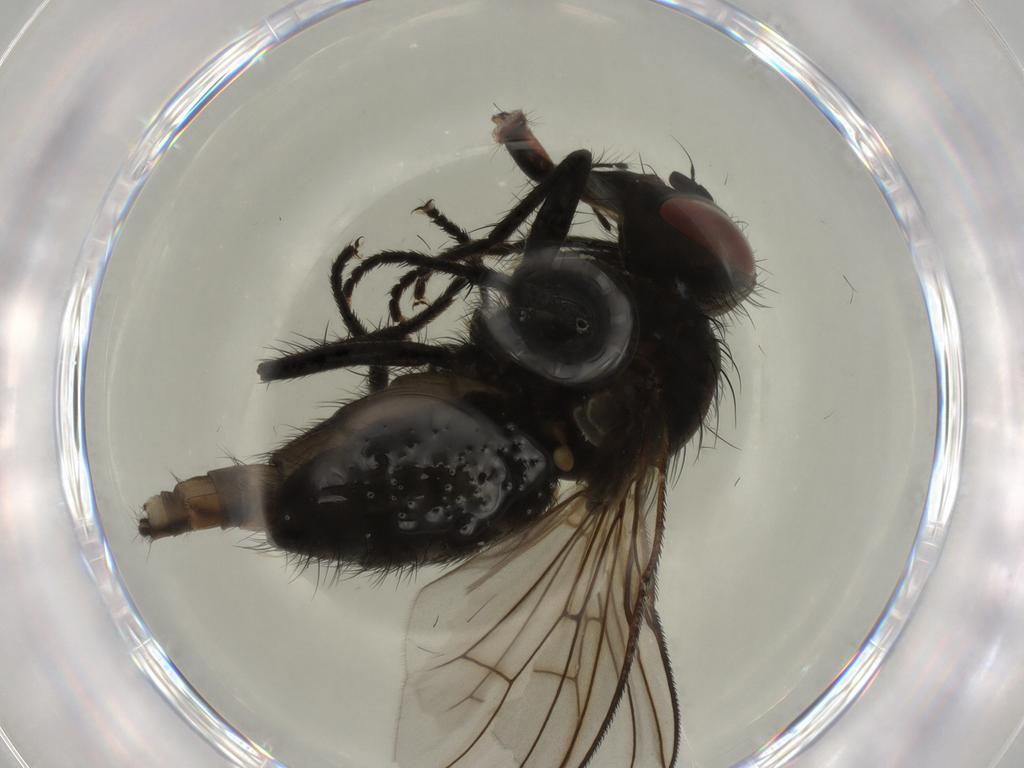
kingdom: Animalia
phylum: Arthropoda
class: Insecta
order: Diptera
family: Muscidae
